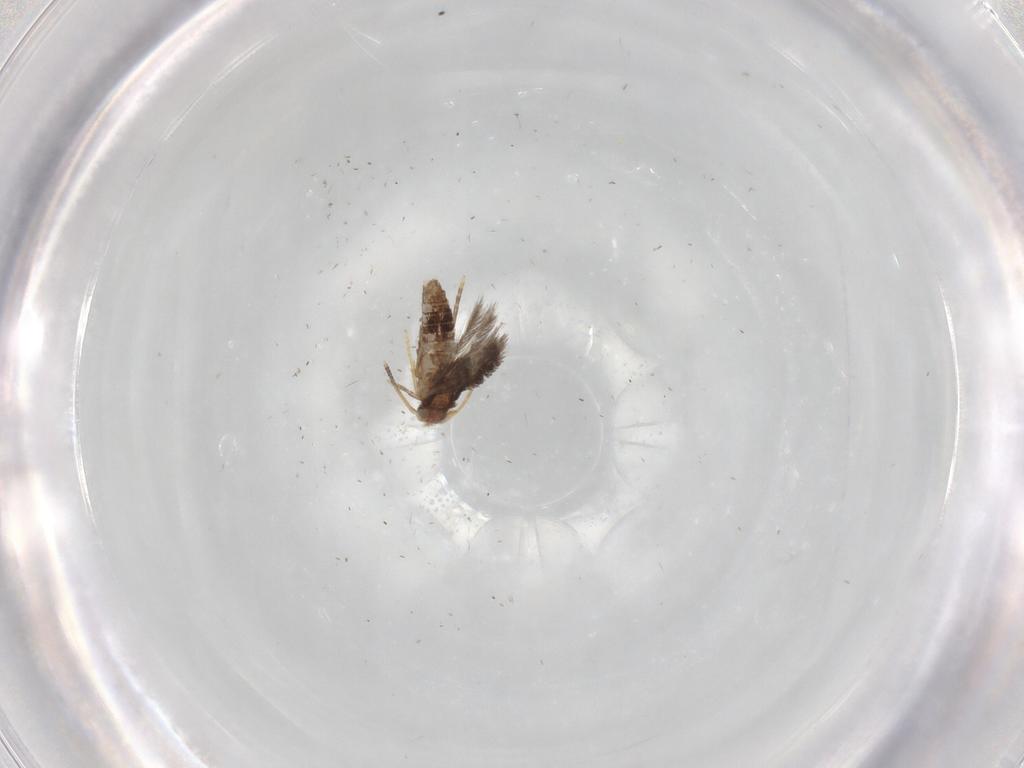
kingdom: Animalia
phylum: Arthropoda
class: Insecta
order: Lepidoptera
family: Nepticulidae
